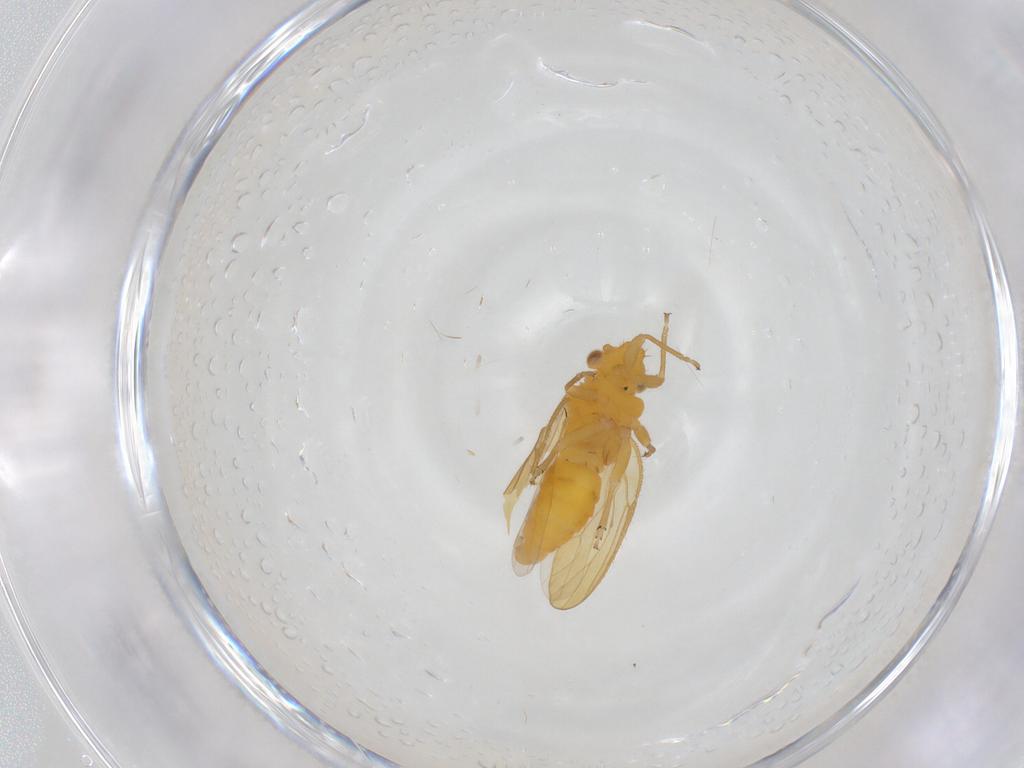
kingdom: Animalia
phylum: Arthropoda
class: Insecta
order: Hemiptera
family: Psyllidae
